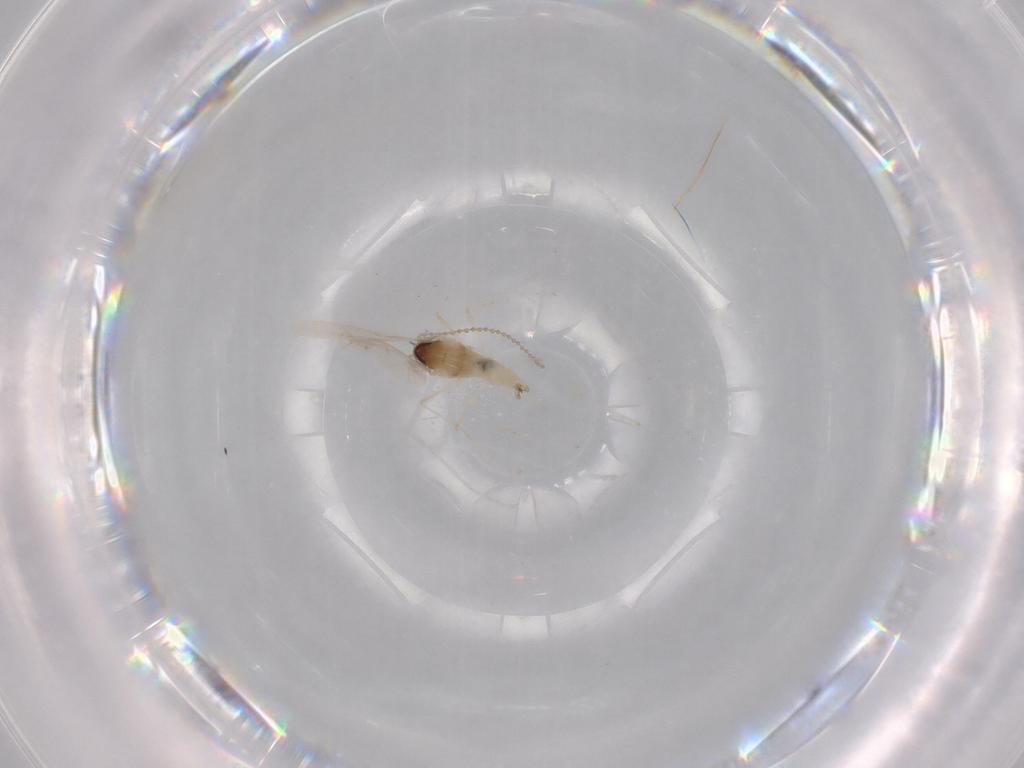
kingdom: Animalia
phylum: Arthropoda
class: Insecta
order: Diptera
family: Cecidomyiidae
